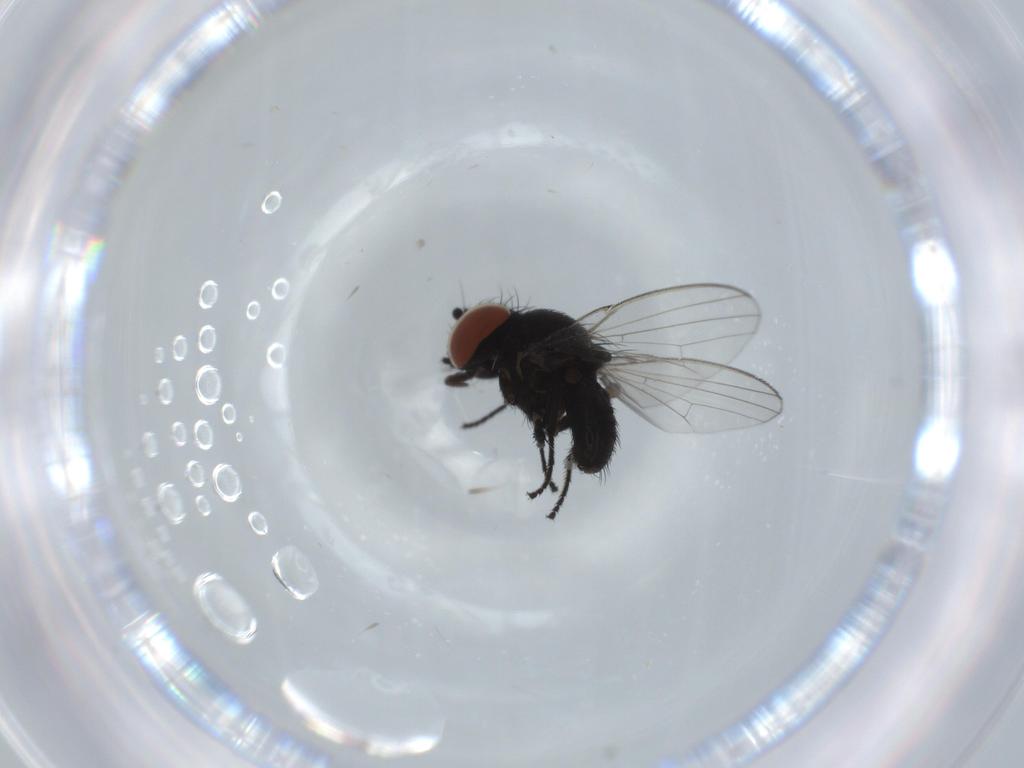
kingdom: Animalia
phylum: Arthropoda
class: Insecta
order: Diptera
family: Milichiidae
